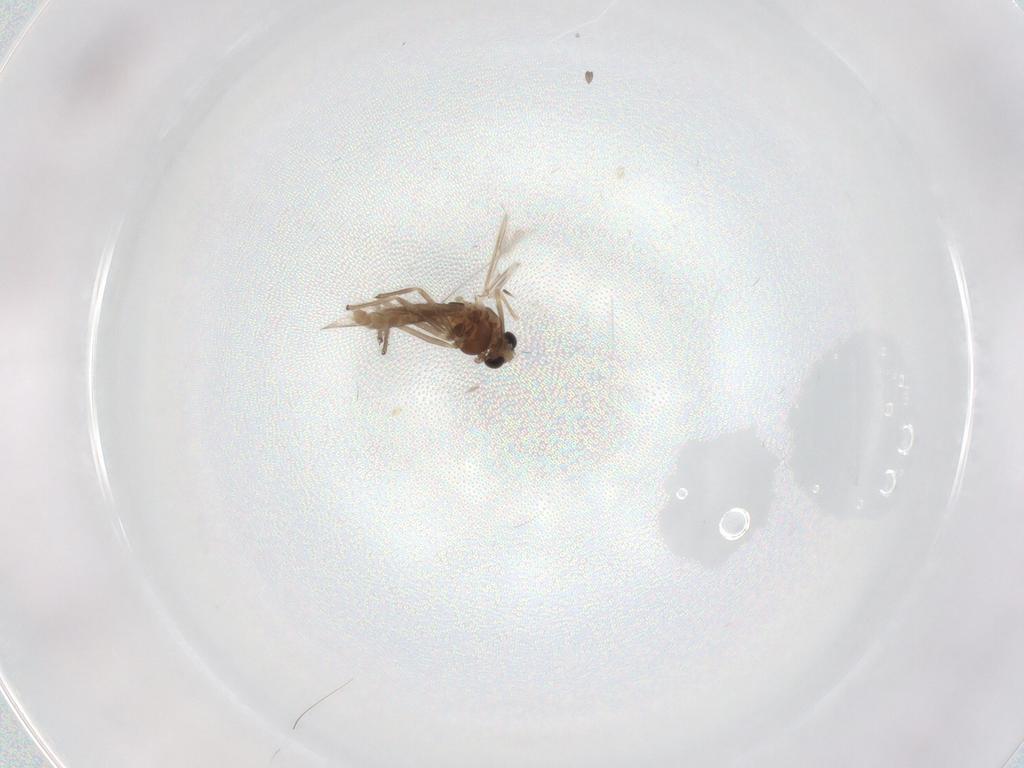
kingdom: Animalia
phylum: Arthropoda
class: Insecta
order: Diptera
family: Chironomidae
